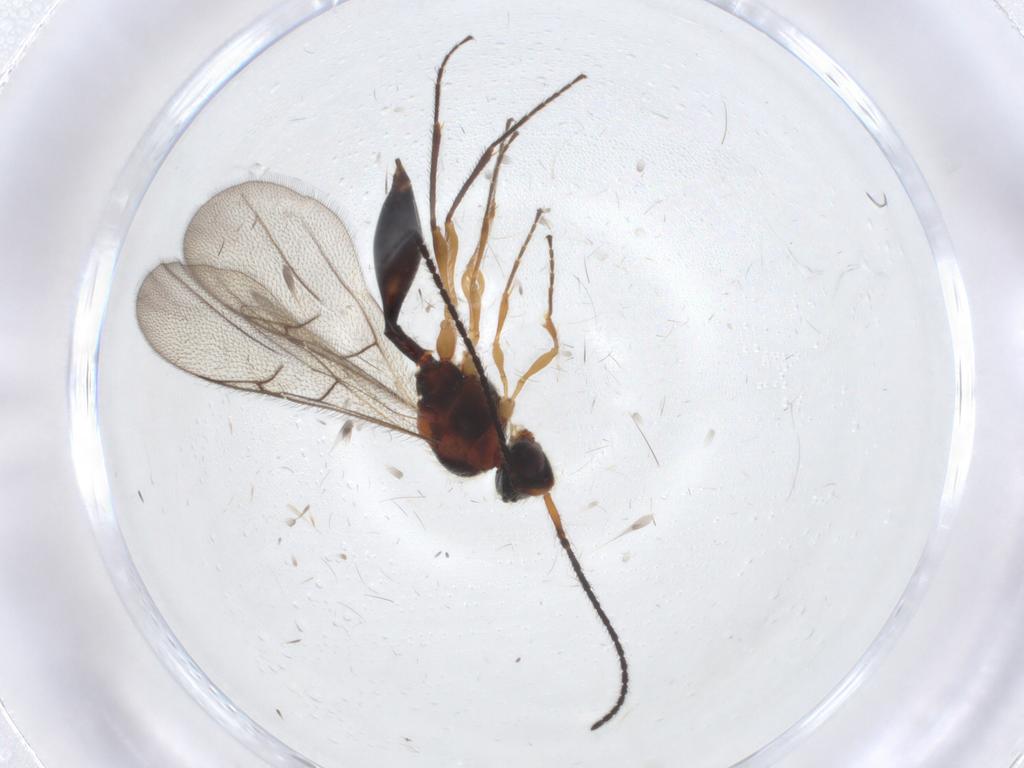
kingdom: Animalia
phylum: Arthropoda
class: Insecta
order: Hymenoptera
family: Diapriidae
